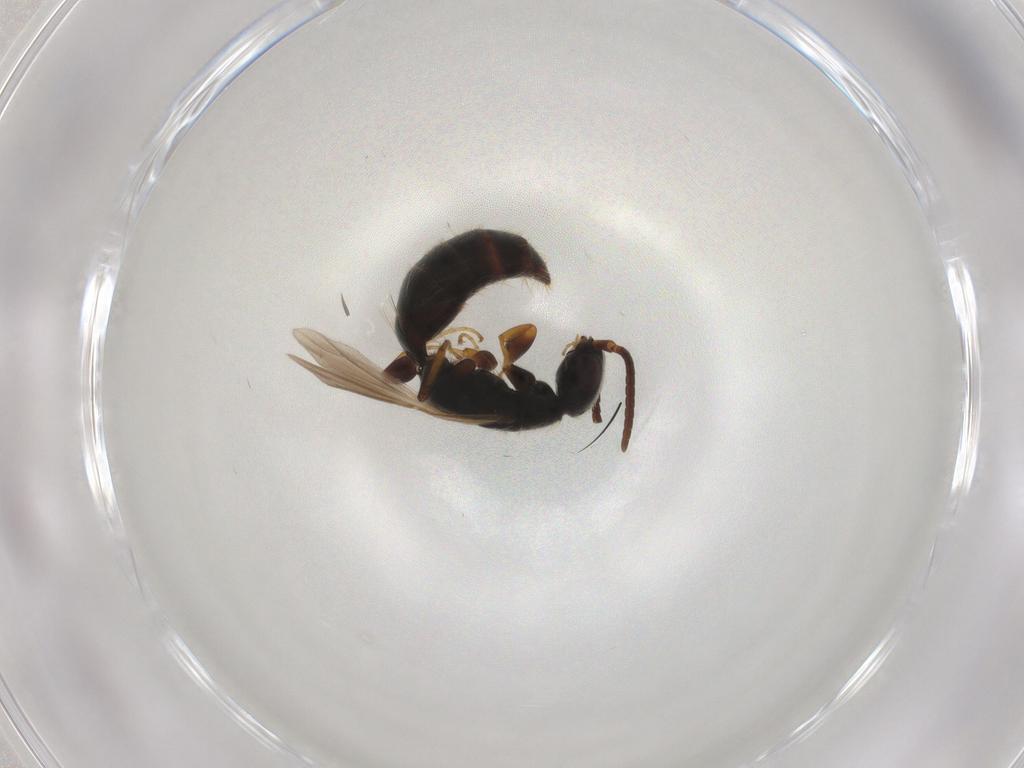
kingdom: Animalia
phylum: Arthropoda
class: Insecta
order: Hymenoptera
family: Bethylidae
